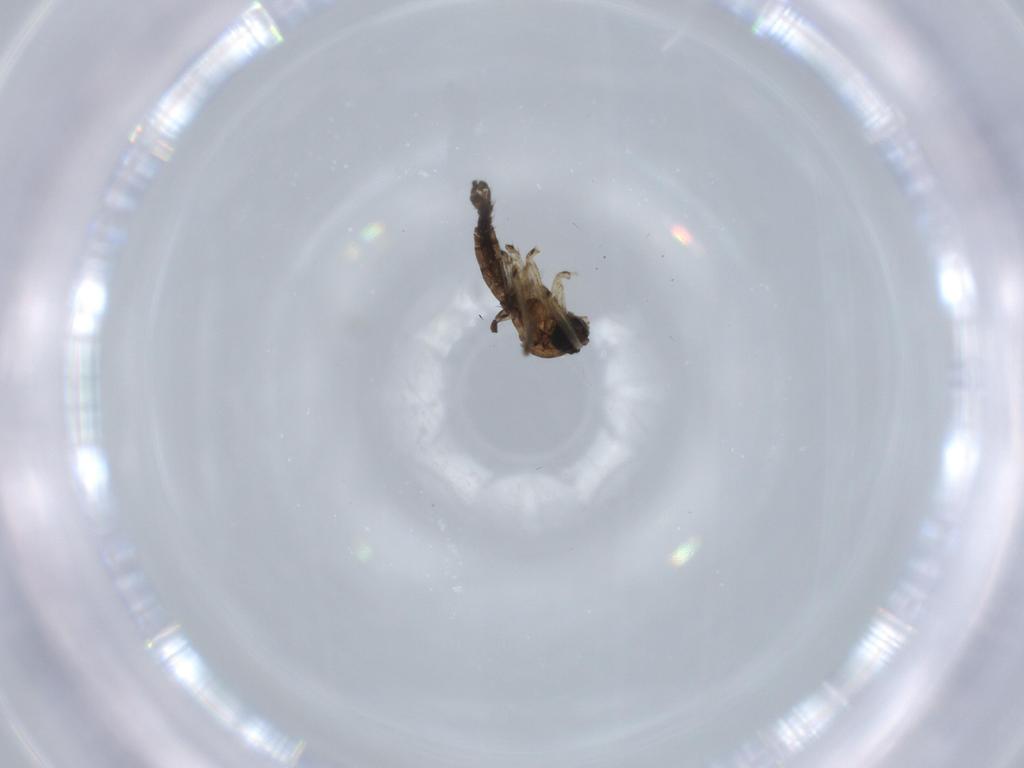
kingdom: Animalia
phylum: Arthropoda
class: Insecta
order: Diptera
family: Sciaridae
